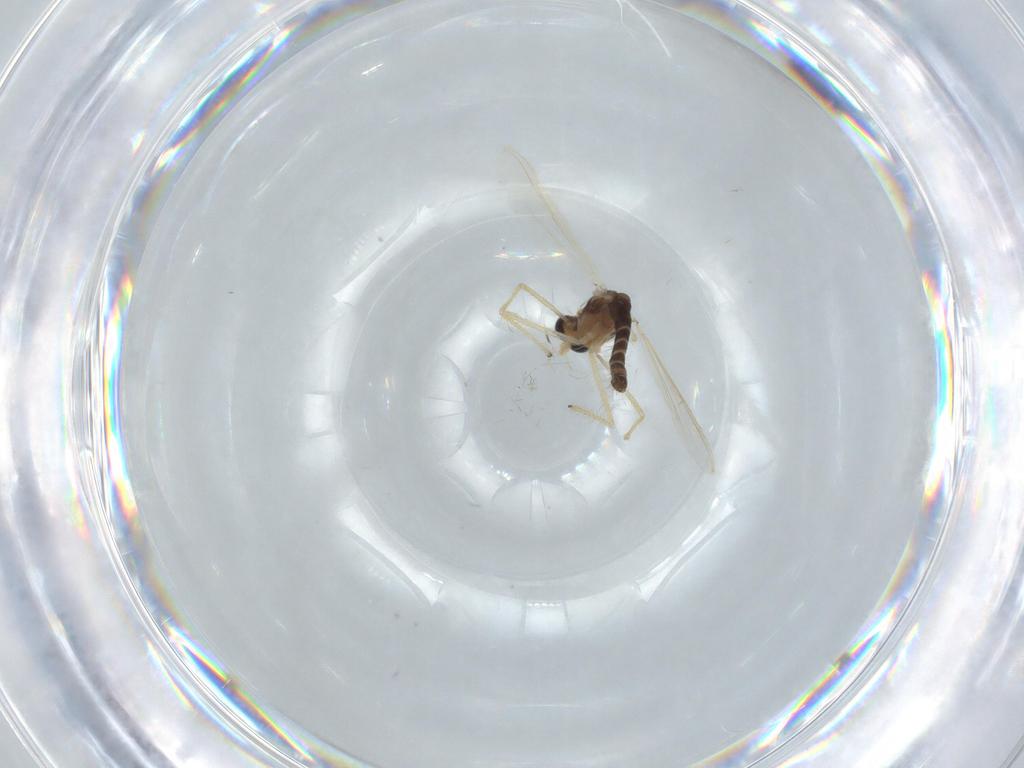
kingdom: Animalia
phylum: Arthropoda
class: Insecta
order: Diptera
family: Chironomidae
